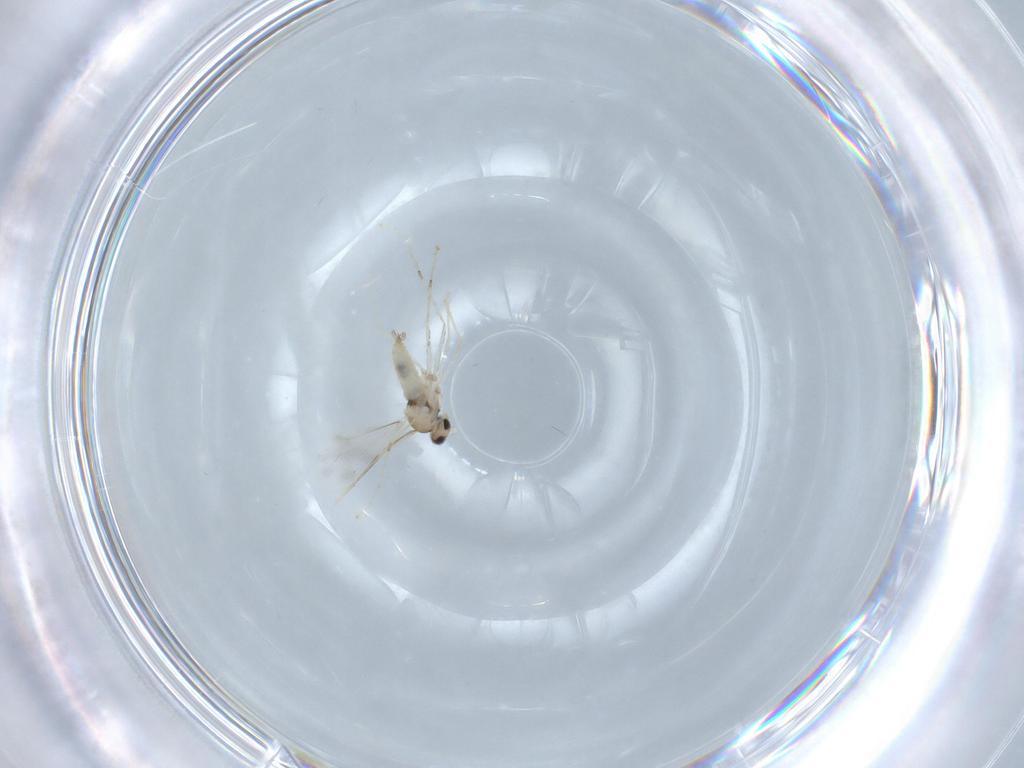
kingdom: Animalia
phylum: Arthropoda
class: Insecta
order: Diptera
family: Cecidomyiidae
